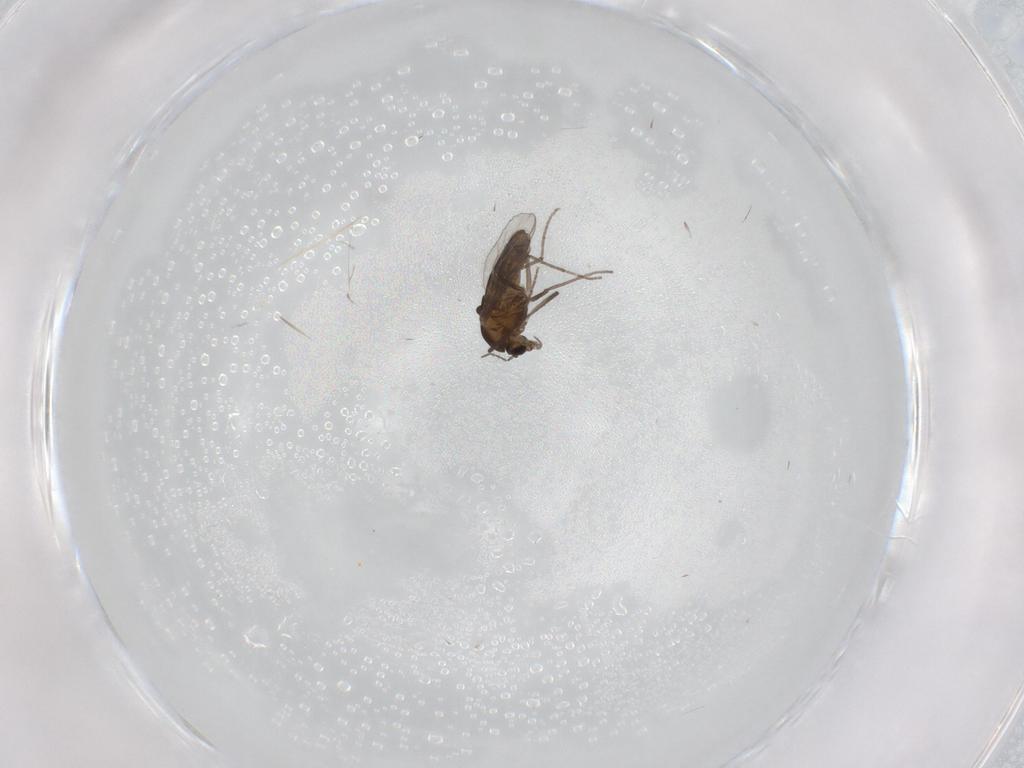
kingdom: Animalia
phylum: Arthropoda
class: Insecta
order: Diptera
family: Chironomidae
